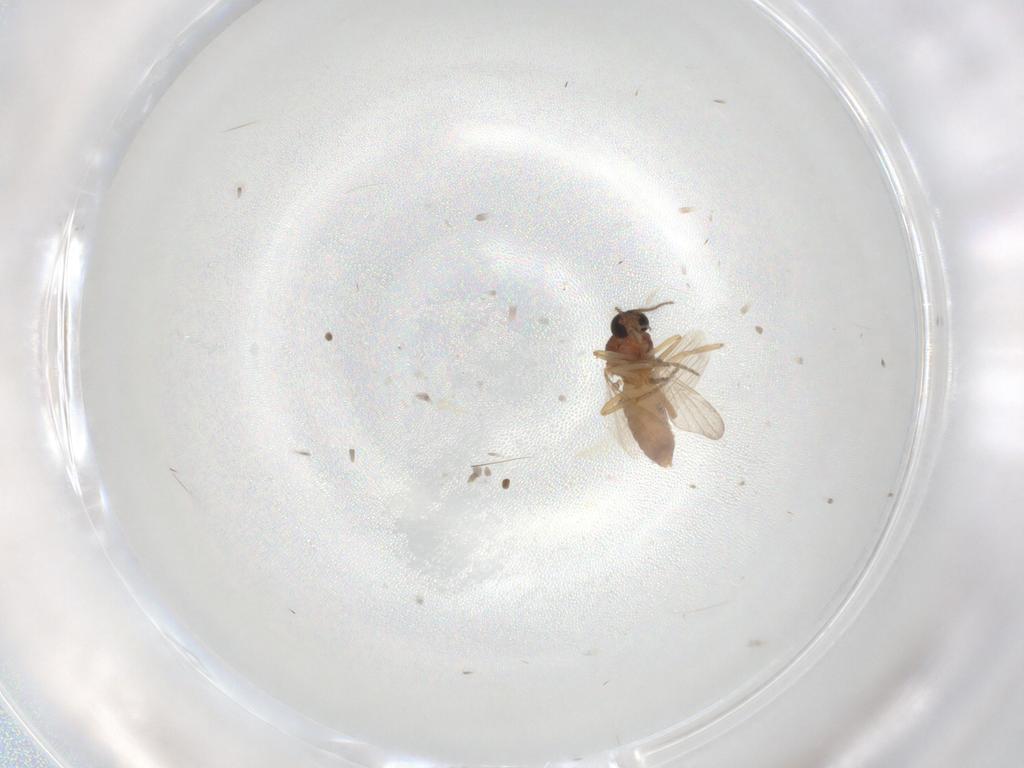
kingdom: Animalia
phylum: Arthropoda
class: Insecta
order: Diptera
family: Ceratopogonidae
